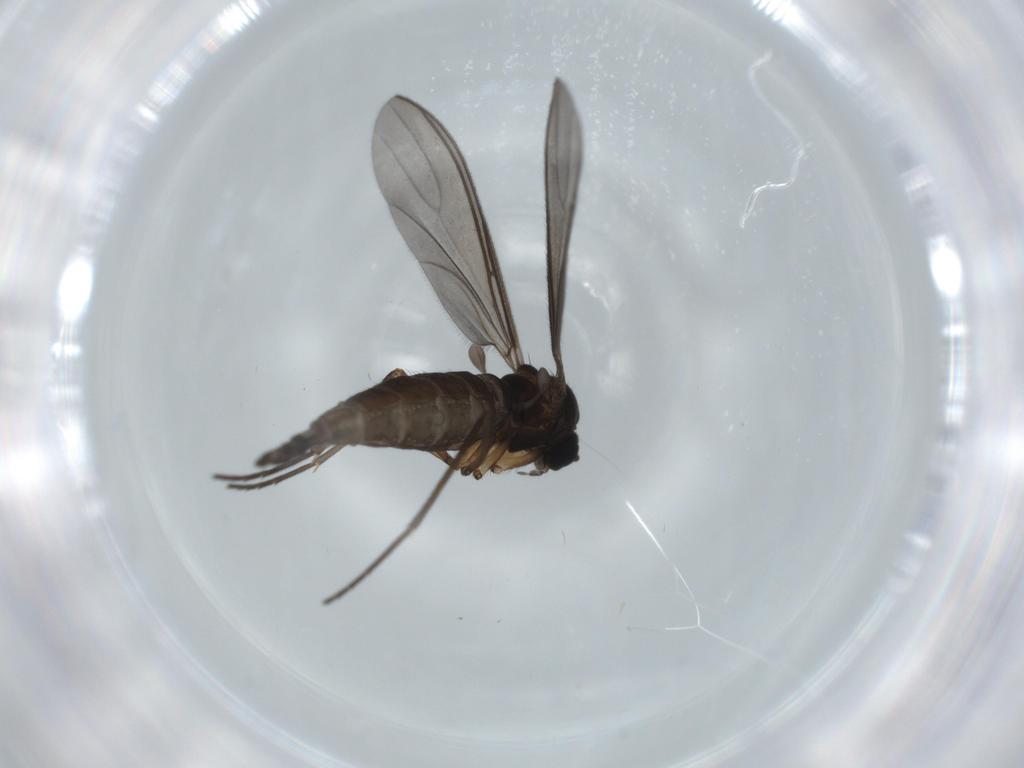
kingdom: Animalia
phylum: Arthropoda
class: Insecta
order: Diptera
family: Sciaridae
